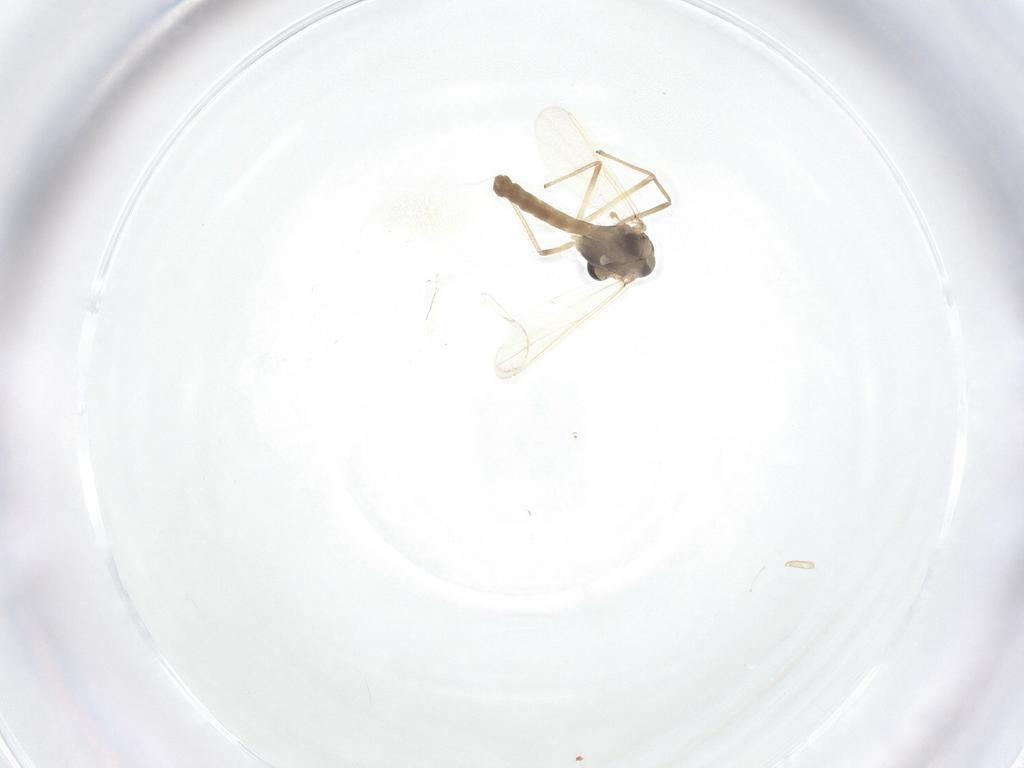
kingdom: Animalia
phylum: Arthropoda
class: Insecta
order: Diptera
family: Chironomidae
